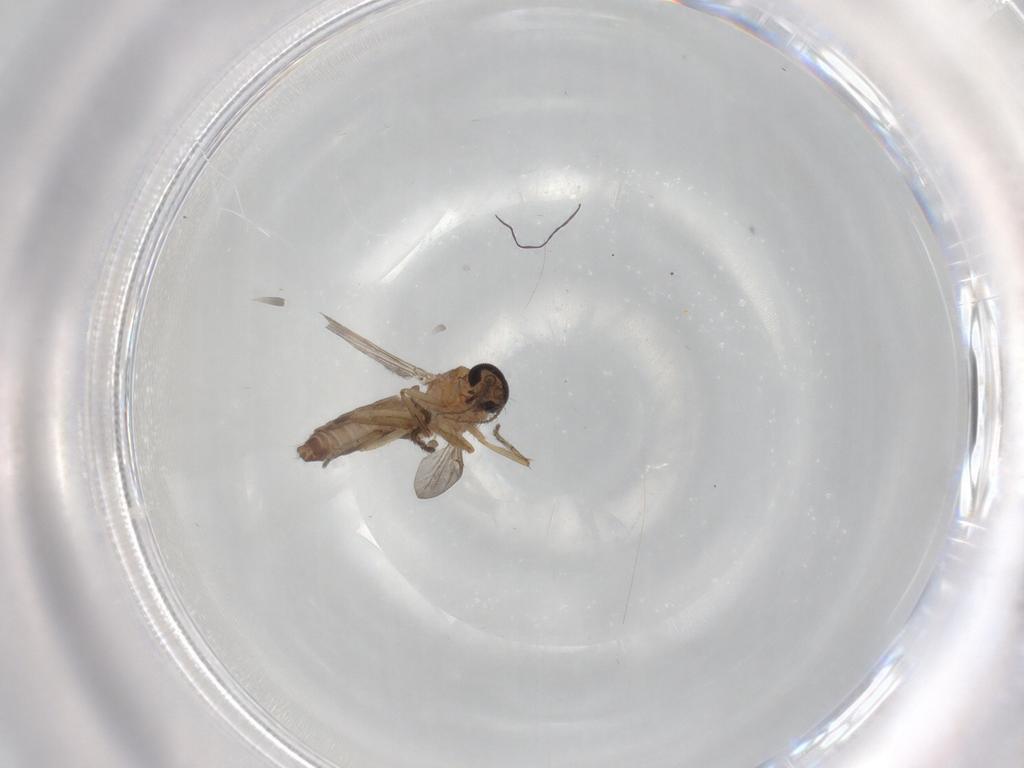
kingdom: Animalia
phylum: Arthropoda
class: Insecta
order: Diptera
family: Ceratopogonidae
